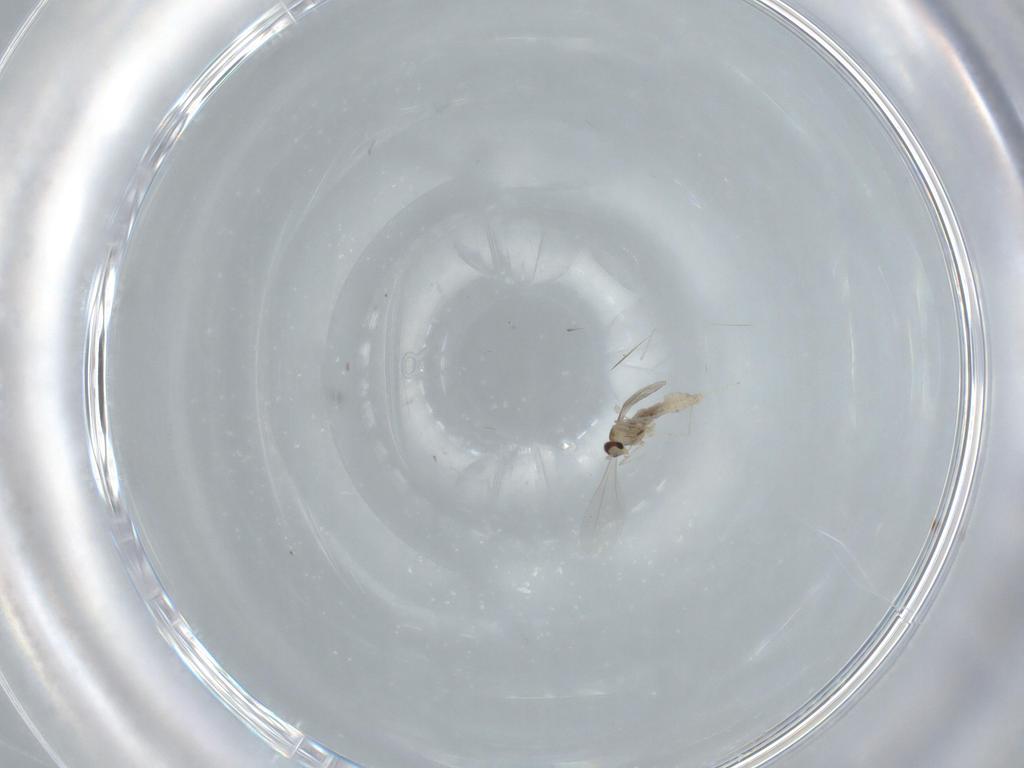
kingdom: Animalia
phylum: Arthropoda
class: Insecta
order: Diptera
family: Cecidomyiidae
